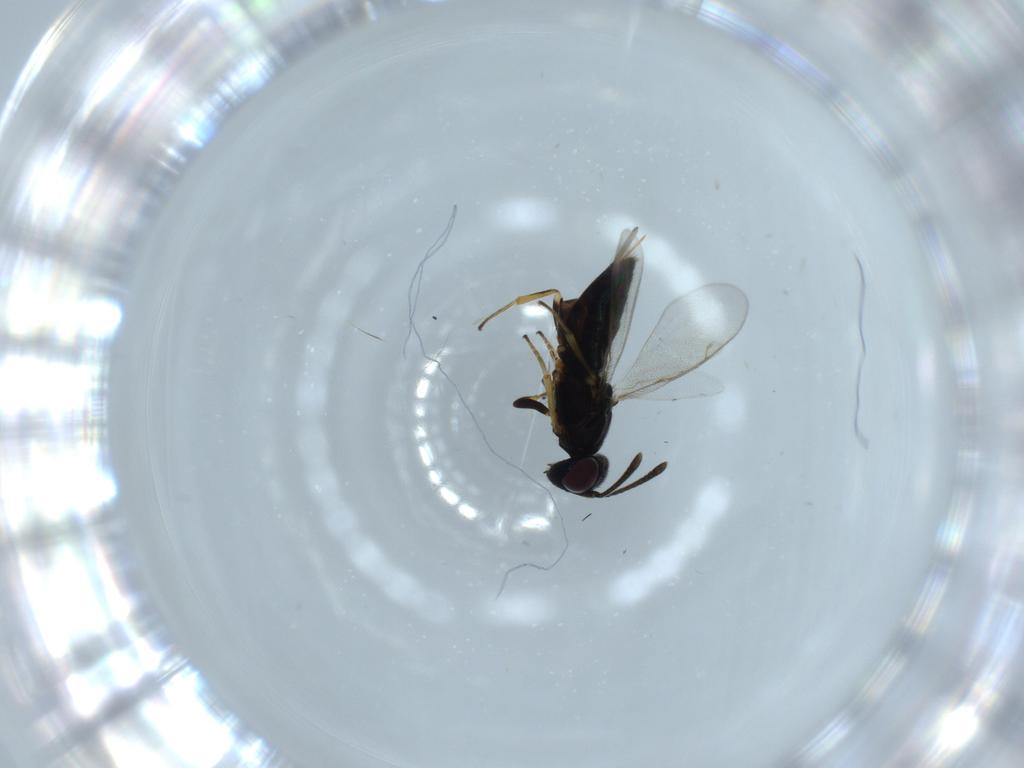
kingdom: Animalia
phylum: Arthropoda
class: Insecta
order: Hymenoptera
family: Eupelmidae
